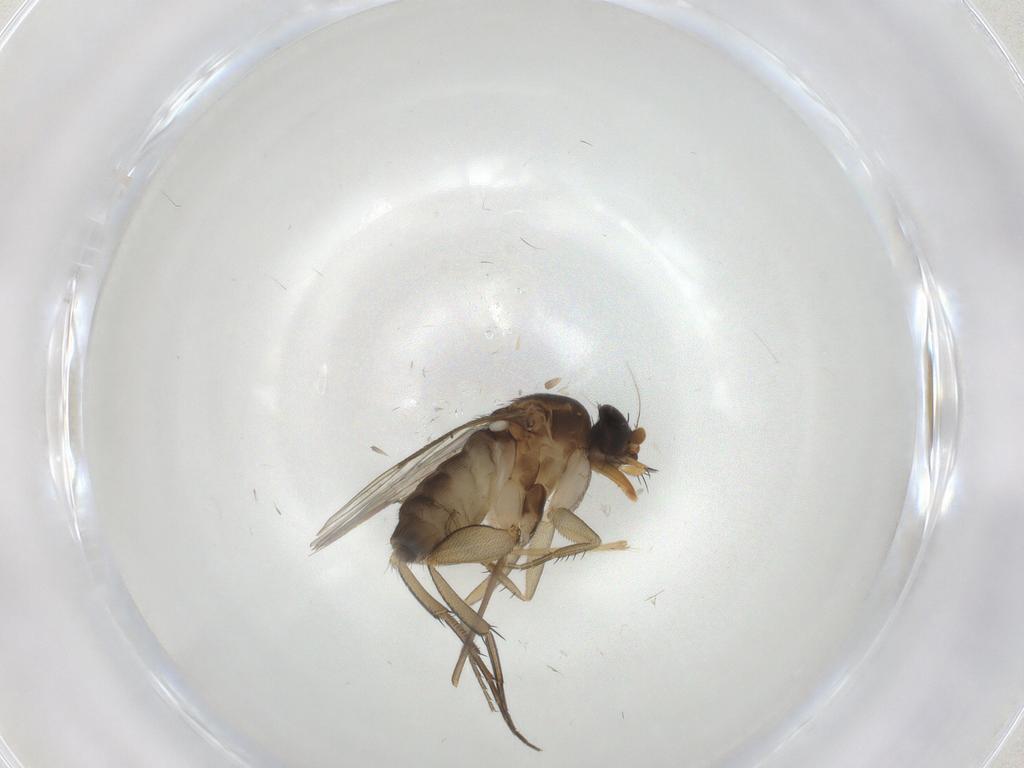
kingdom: Animalia
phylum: Arthropoda
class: Insecta
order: Diptera
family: Phoridae
